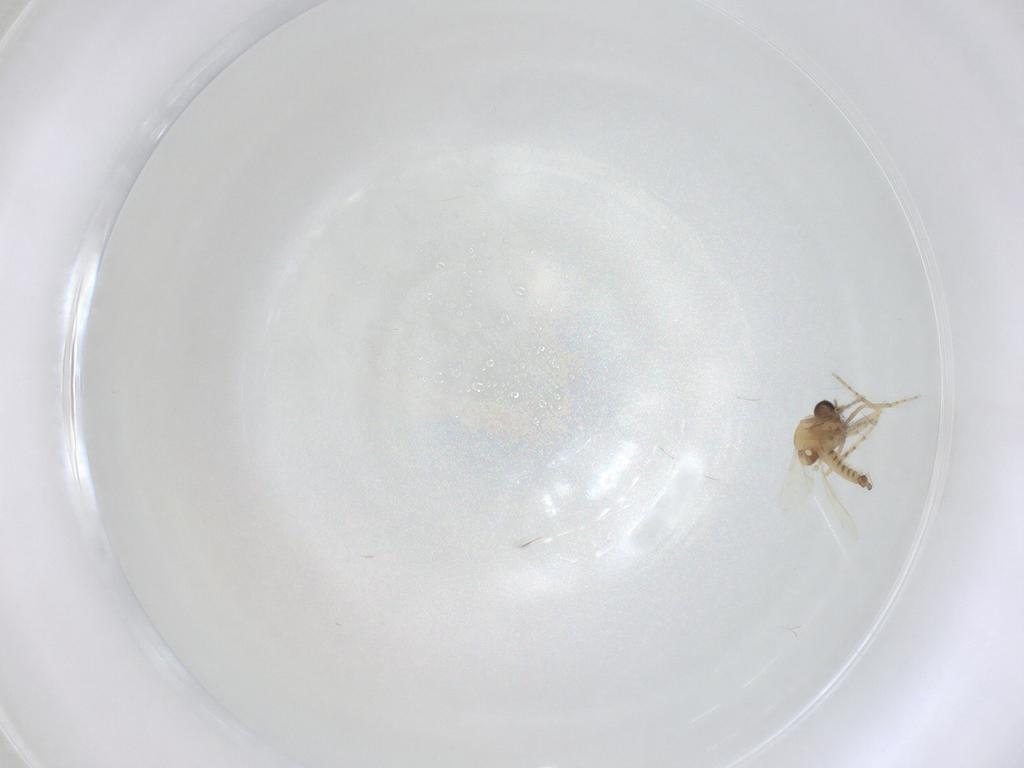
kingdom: Animalia
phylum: Arthropoda
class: Insecta
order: Diptera
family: Ceratopogonidae
